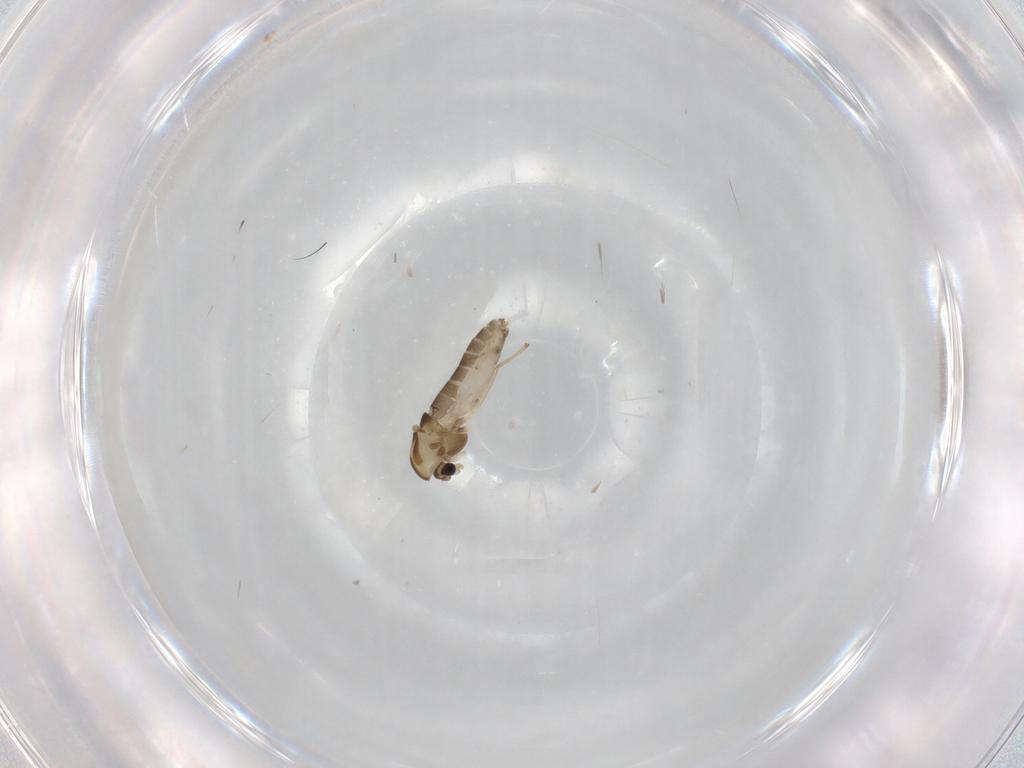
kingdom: Animalia
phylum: Arthropoda
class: Insecta
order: Diptera
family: Chironomidae
